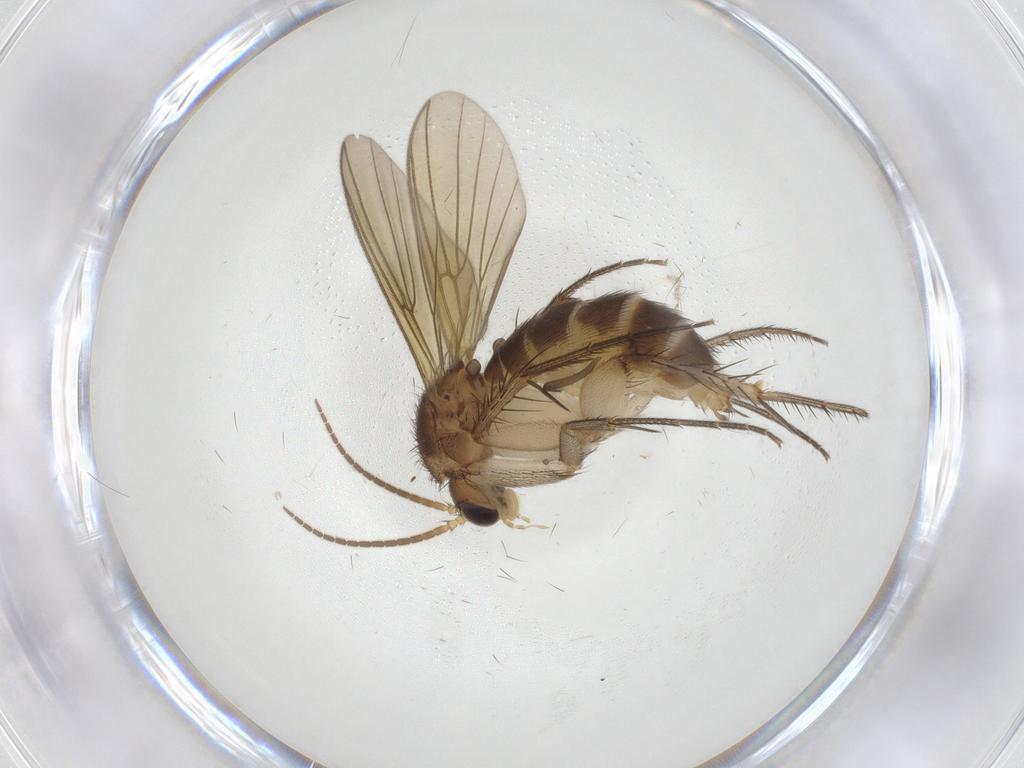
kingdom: Animalia
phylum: Arthropoda
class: Insecta
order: Diptera
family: Psychodidae
